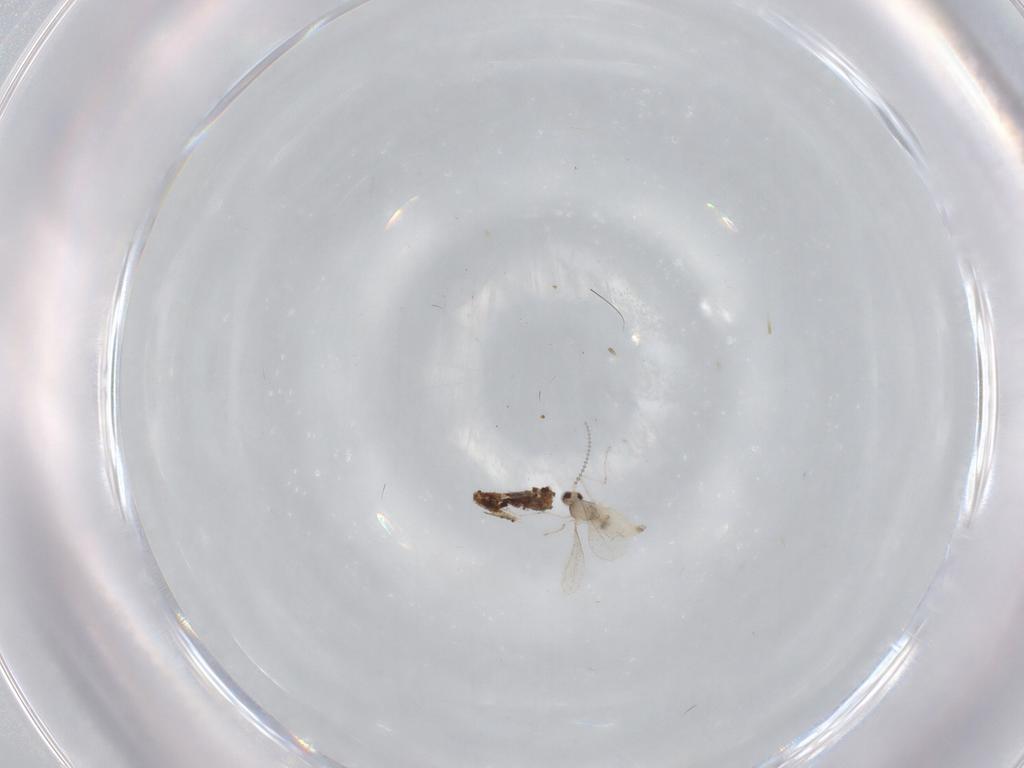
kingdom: Animalia
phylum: Arthropoda
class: Insecta
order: Diptera
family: Cecidomyiidae
